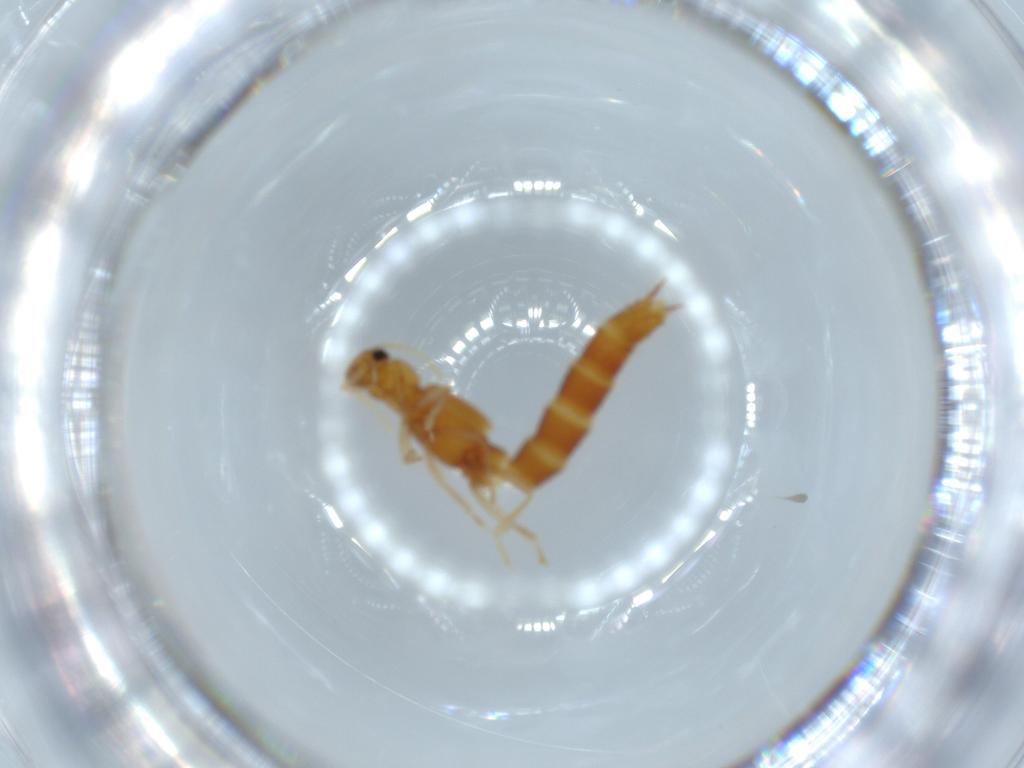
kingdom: Animalia
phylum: Arthropoda
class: Insecta
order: Coleoptera
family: Staphylinidae
